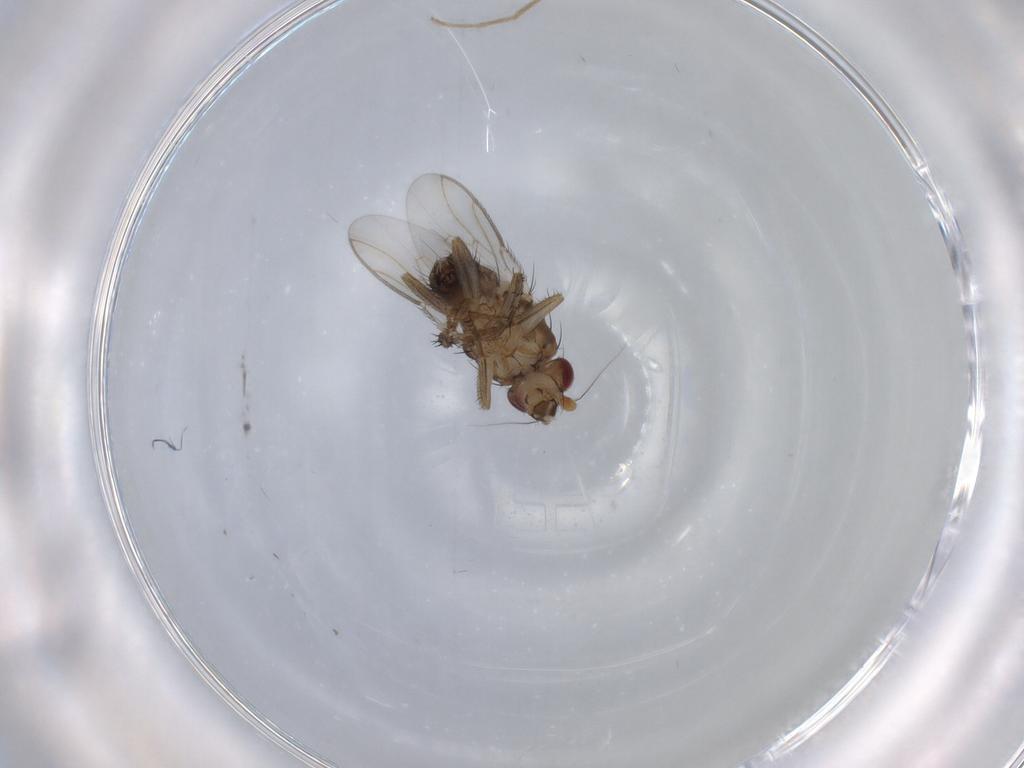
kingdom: Animalia
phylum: Arthropoda
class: Insecta
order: Diptera
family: Sphaeroceridae
